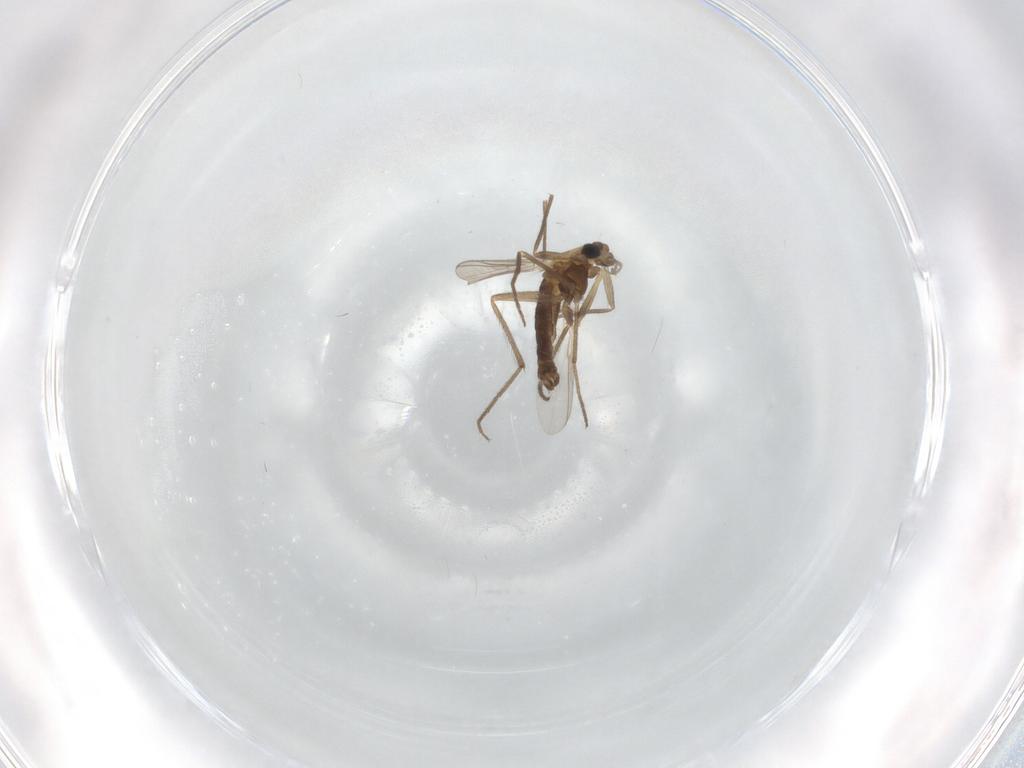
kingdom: Animalia
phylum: Arthropoda
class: Insecta
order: Diptera
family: Chironomidae
